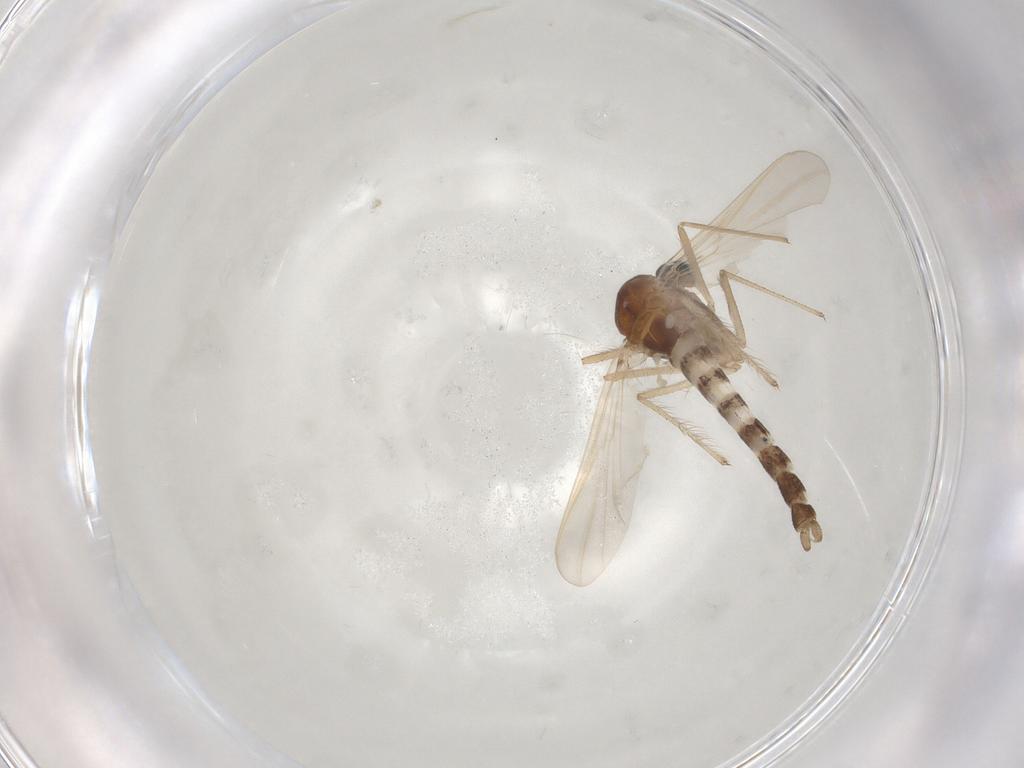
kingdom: Animalia
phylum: Arthropoda
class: Insecta
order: Diptera
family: Chironomidae
